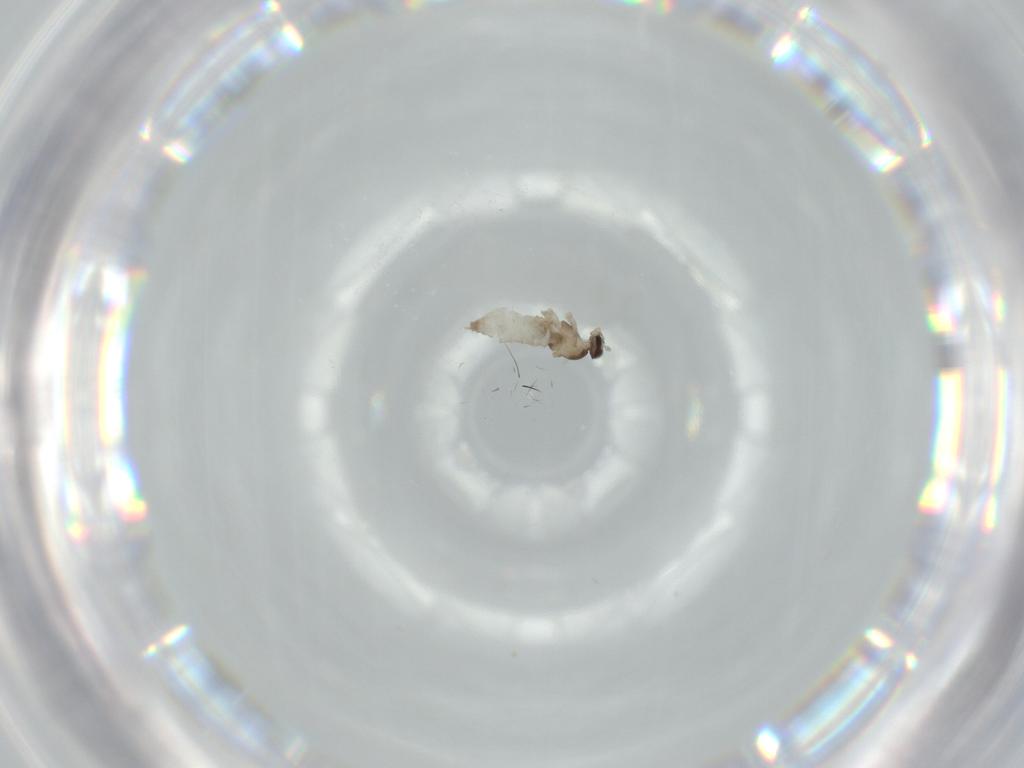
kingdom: Animalia
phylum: Arthropoda
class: Insecta
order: Diptera
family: Cecidomyiidae
